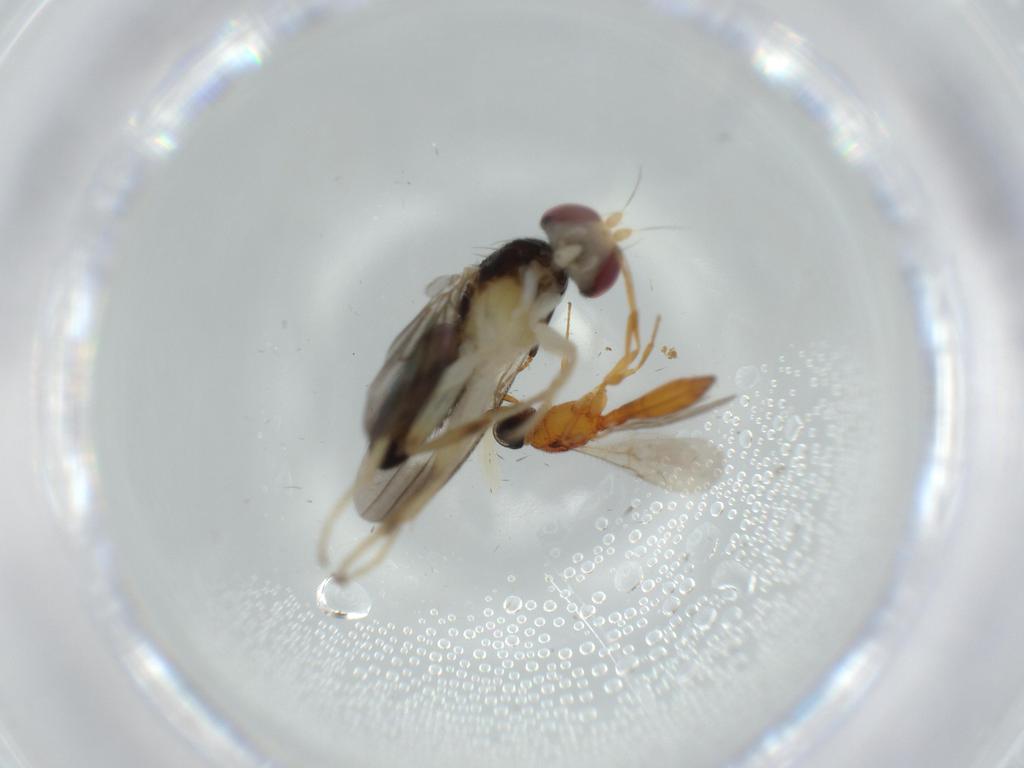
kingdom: Animalia
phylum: Arthropoda
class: Insecta
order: Diptera
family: Clusiidae
